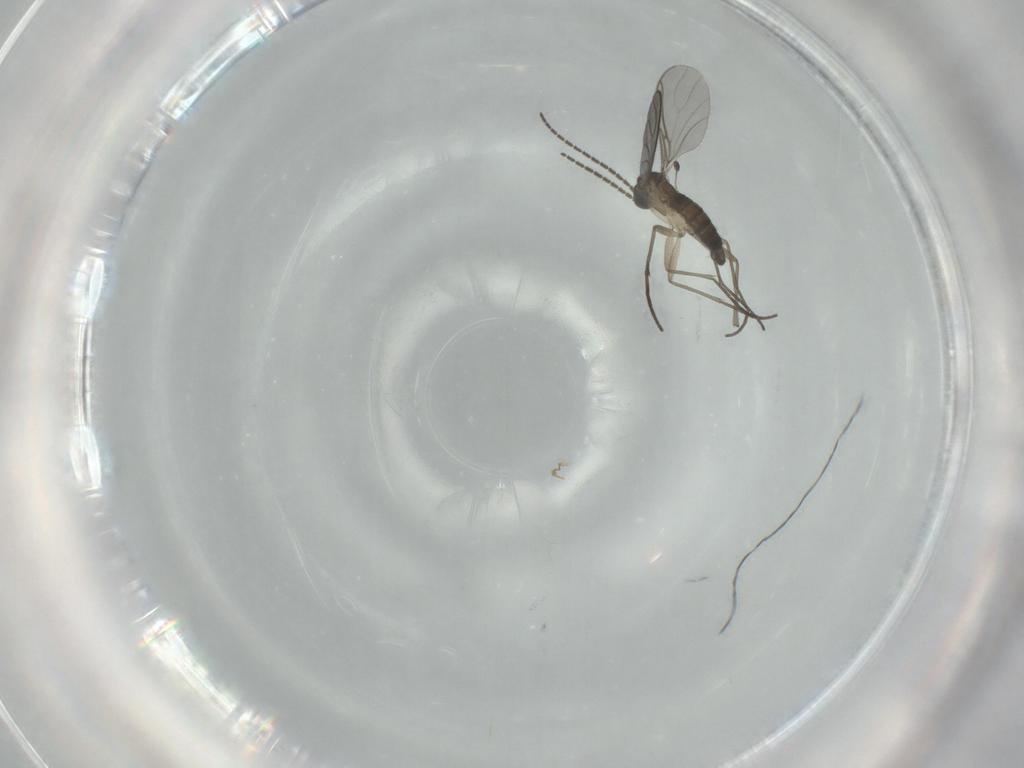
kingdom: Animalia
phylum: Arthropoda
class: Insecta
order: Diptera
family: Sciaridae
